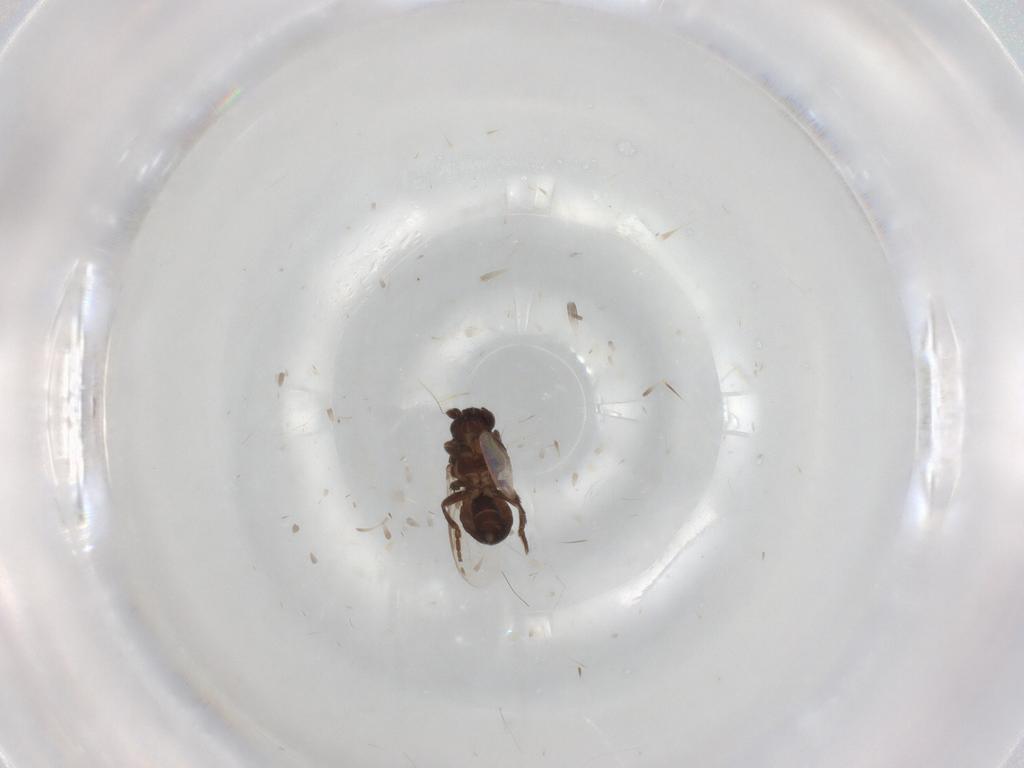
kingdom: Animalia
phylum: Arthropoda
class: Insecta
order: Diptera
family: Sphaeroceridae
